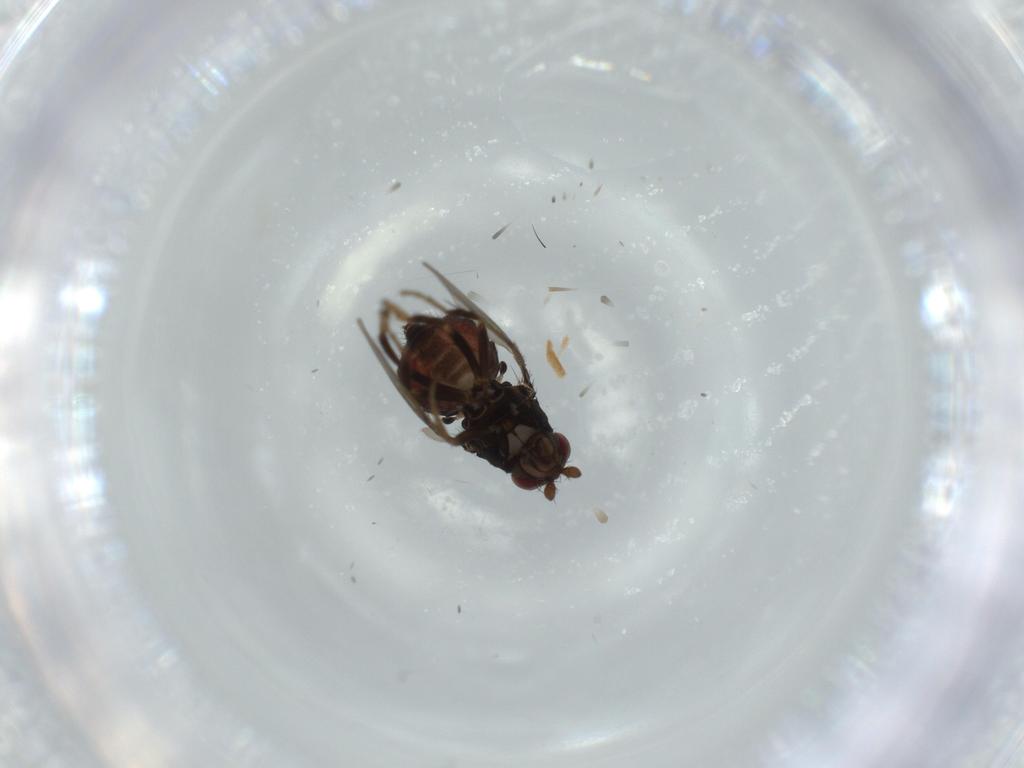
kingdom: Animalia
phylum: Arthropoda
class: Insecta
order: Diptera
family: Sphaeroceridae
